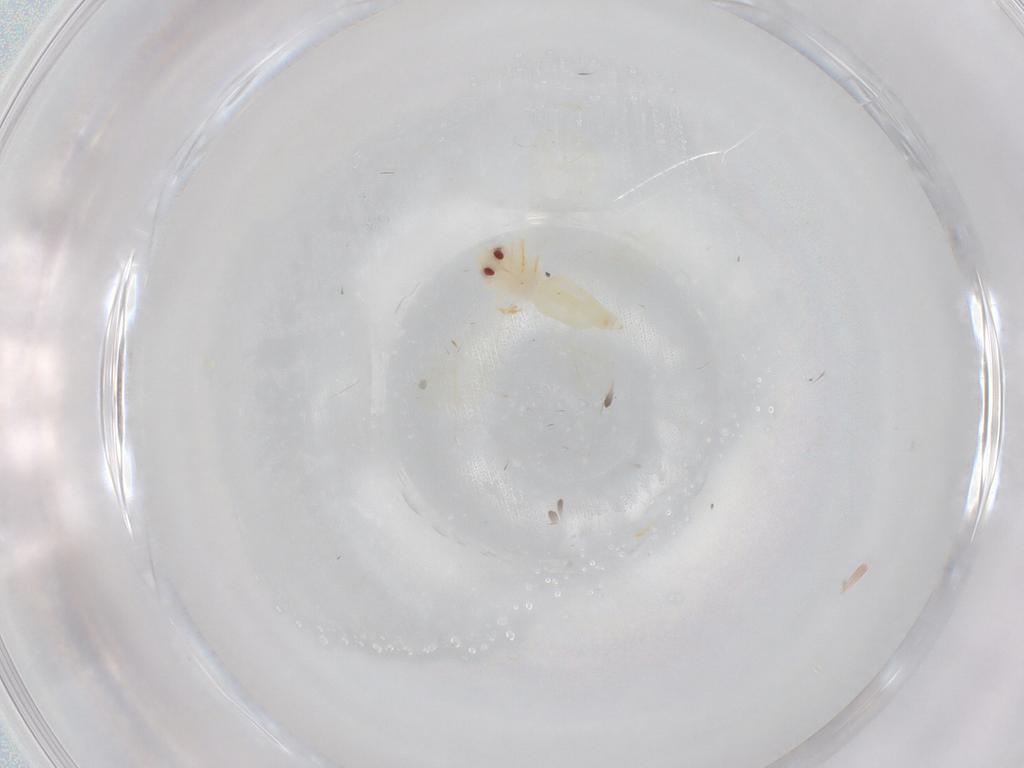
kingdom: Animalia
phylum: Arthropoda
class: Insecta
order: Hemiptera
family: Aleyrodidae
